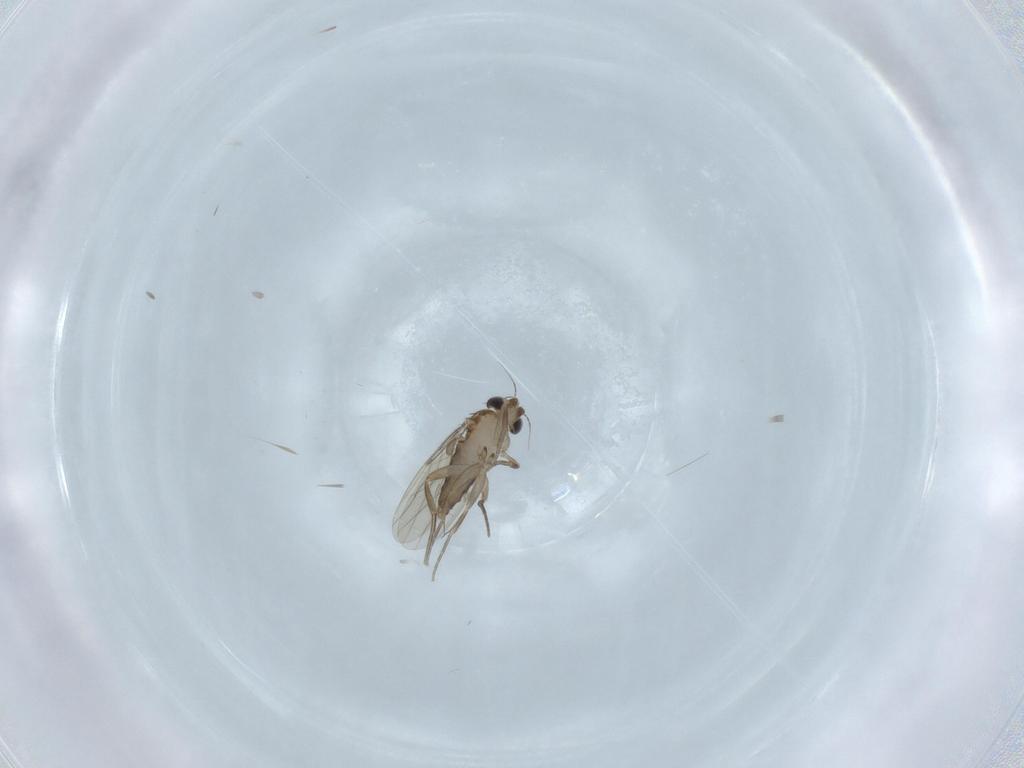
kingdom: Animalia
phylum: Arthropoda
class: Insecta
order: Diptera
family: Phoridae
